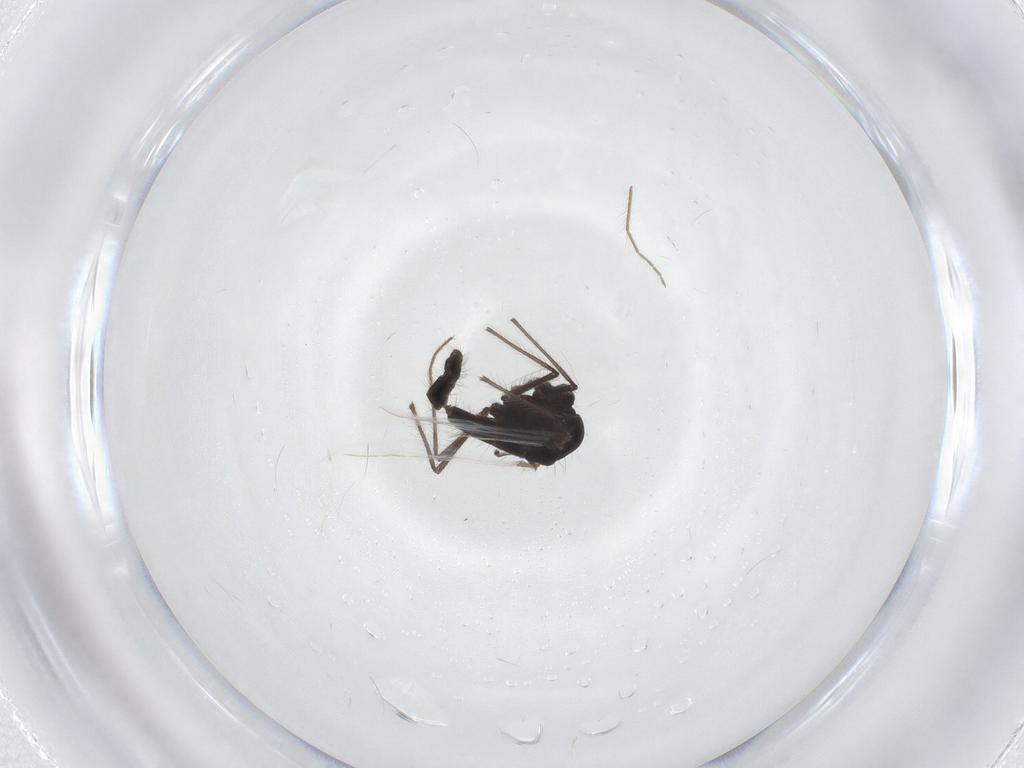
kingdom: Animalia
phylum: Arthropoda
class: Insecta
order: Diptera
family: Chironomidae
